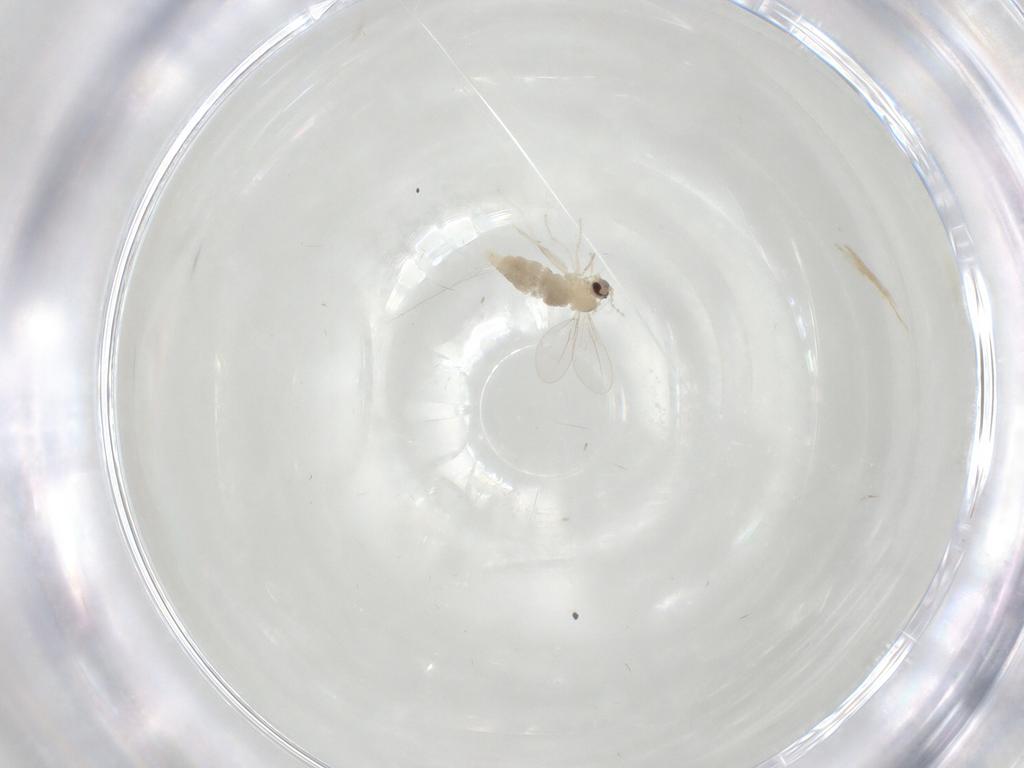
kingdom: Animalia
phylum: Arthropoda
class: Insecta
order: Diptera
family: Cecidomyiidae
